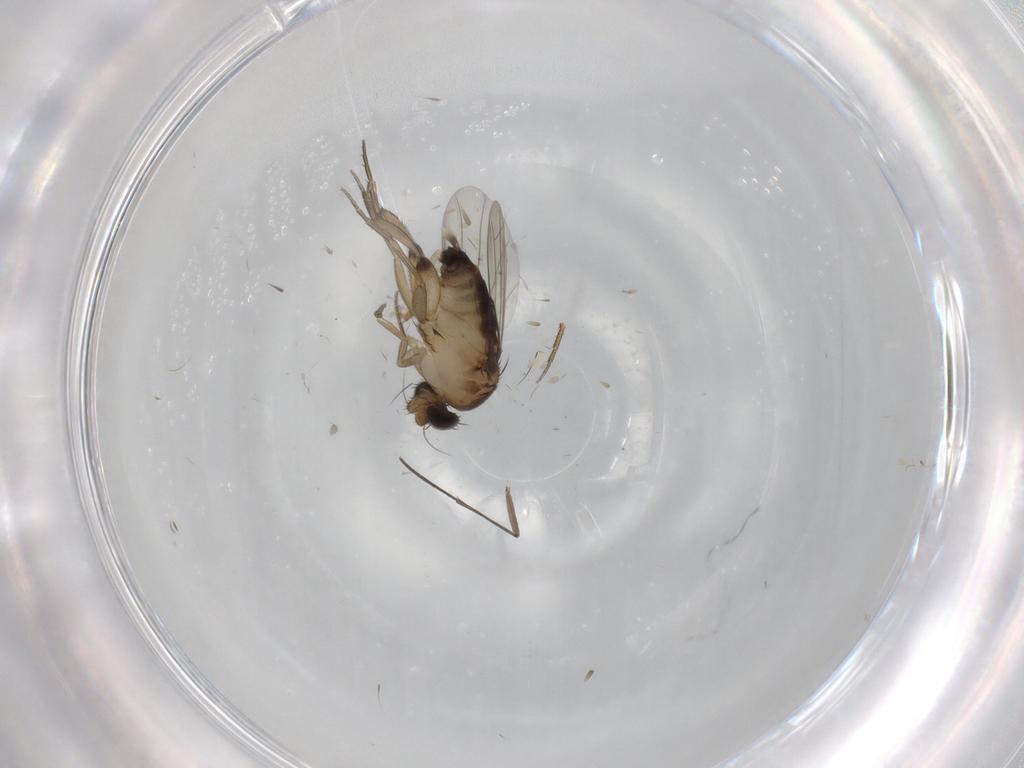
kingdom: Animalia
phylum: Arthropoda
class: Insecta
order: Diptera
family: Phoridae
